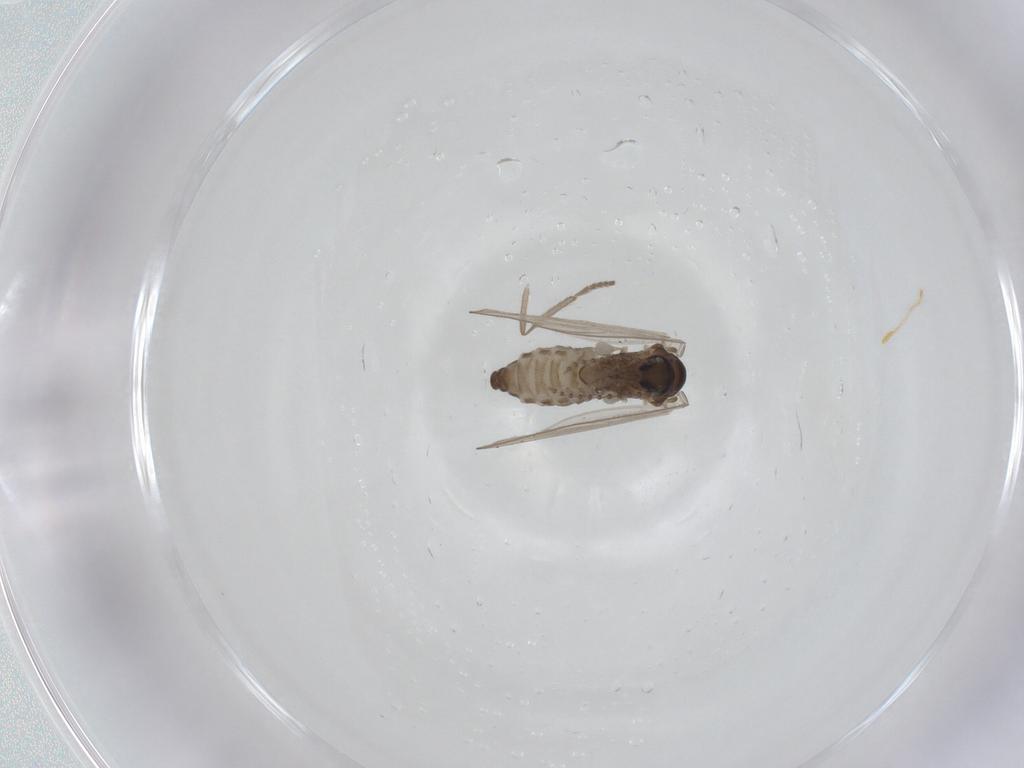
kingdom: Animalia
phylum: Arthropoda
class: Insecta
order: Diptera
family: Psychodidae
